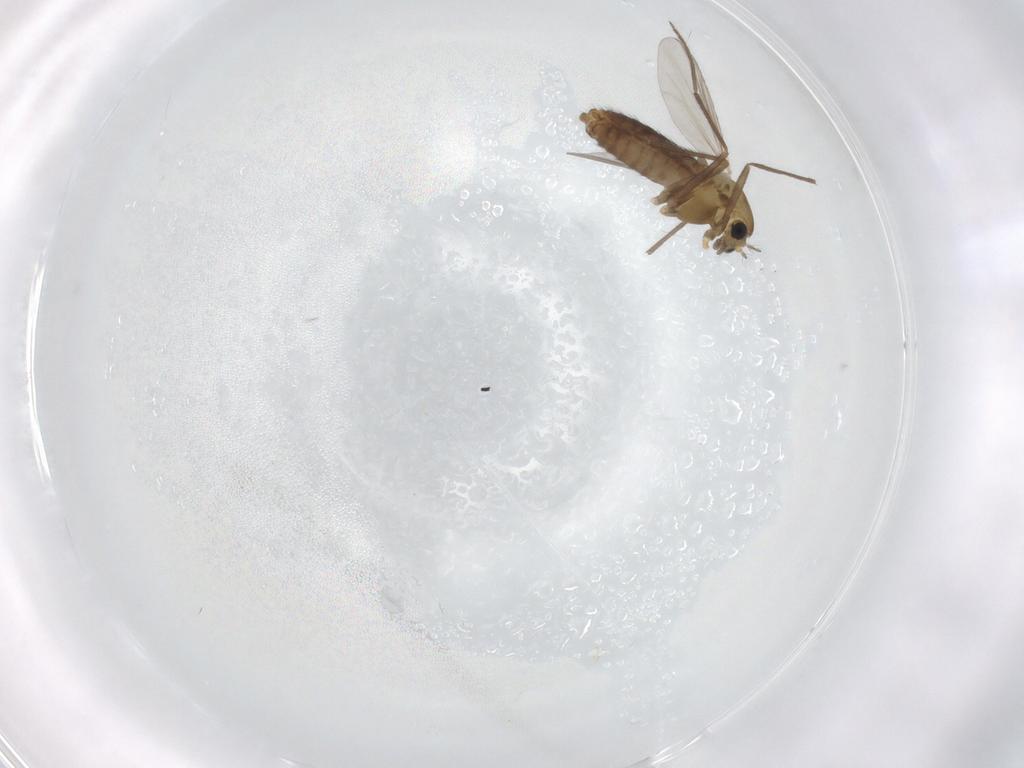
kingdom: Animalia
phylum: Arthropoda
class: Insecta
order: Diptera
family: Chironomidae
